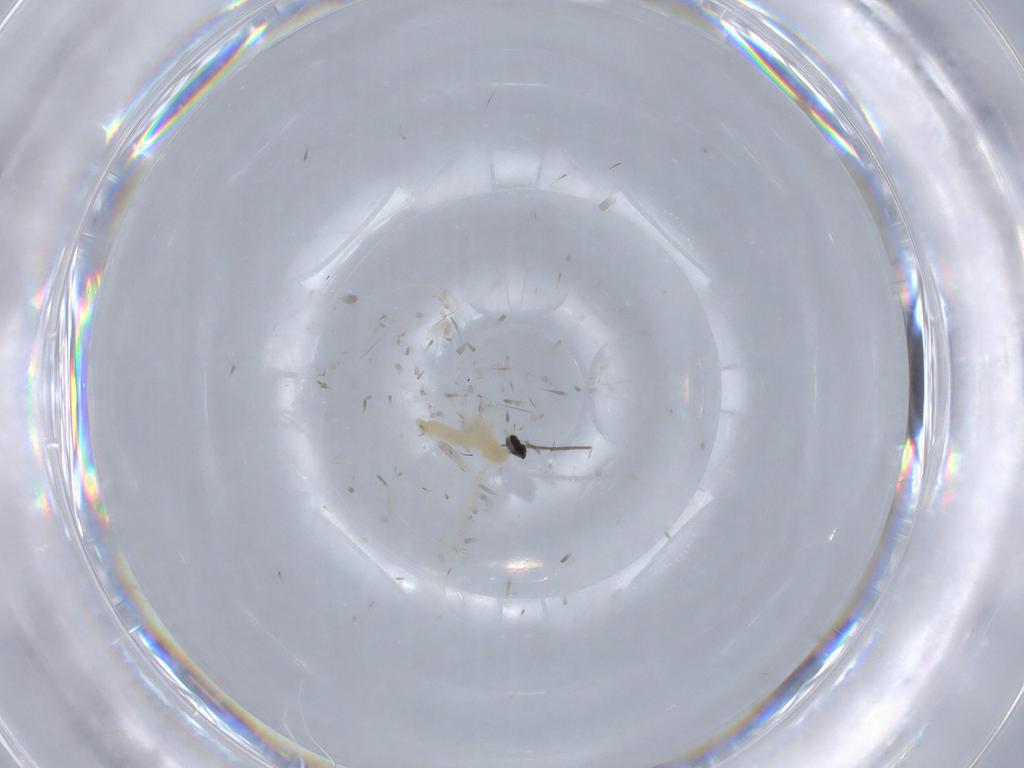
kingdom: Animalia
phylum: Arthropoda
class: Insecta
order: Diptera
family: Cecidomyiidae
